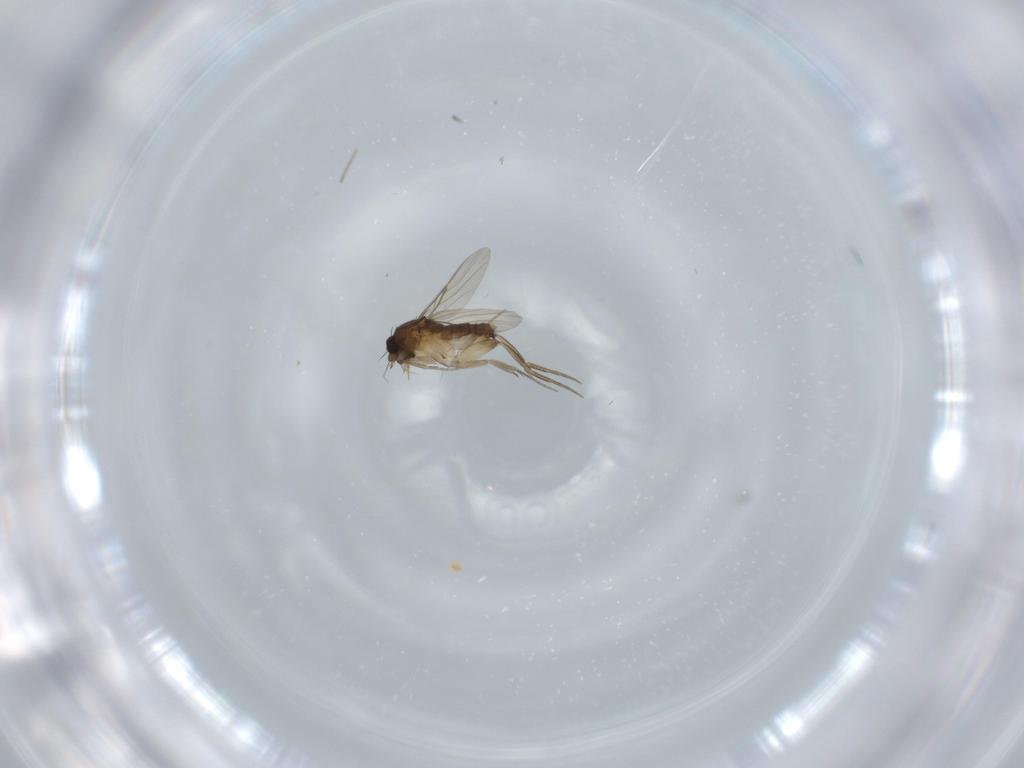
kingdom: Animalia
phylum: Arthropoda
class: Insecta
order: Diptera
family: Phoridae
